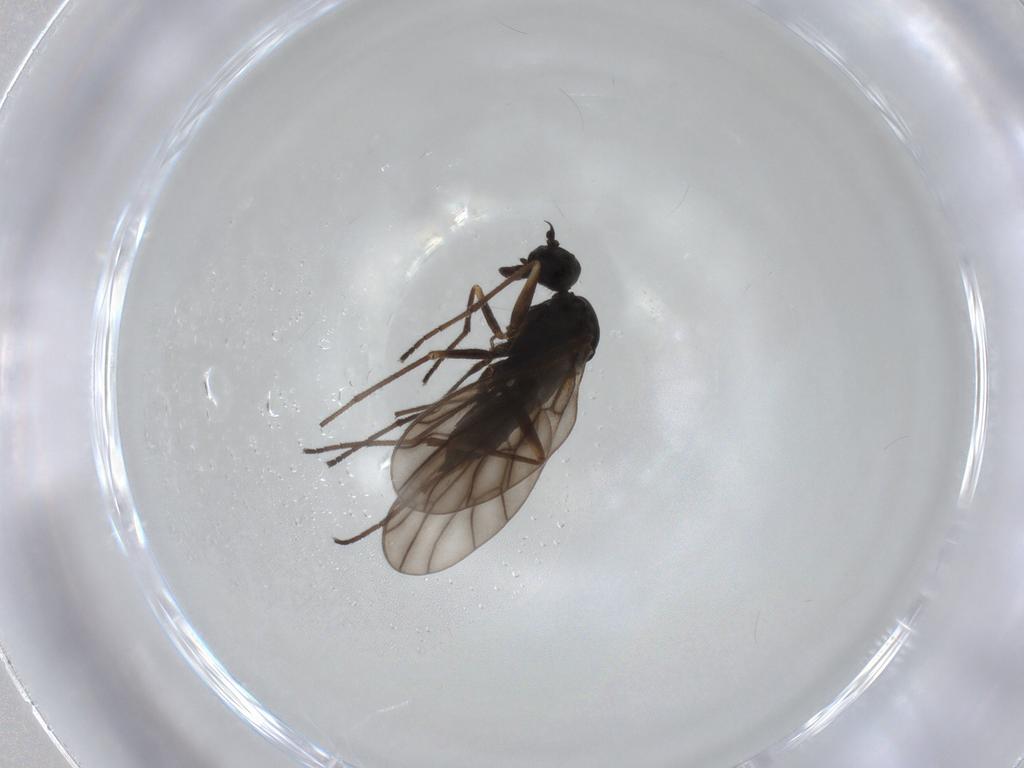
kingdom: Animalia
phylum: Arthropoda
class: Insecta
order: Diptera
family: Chironomidae
